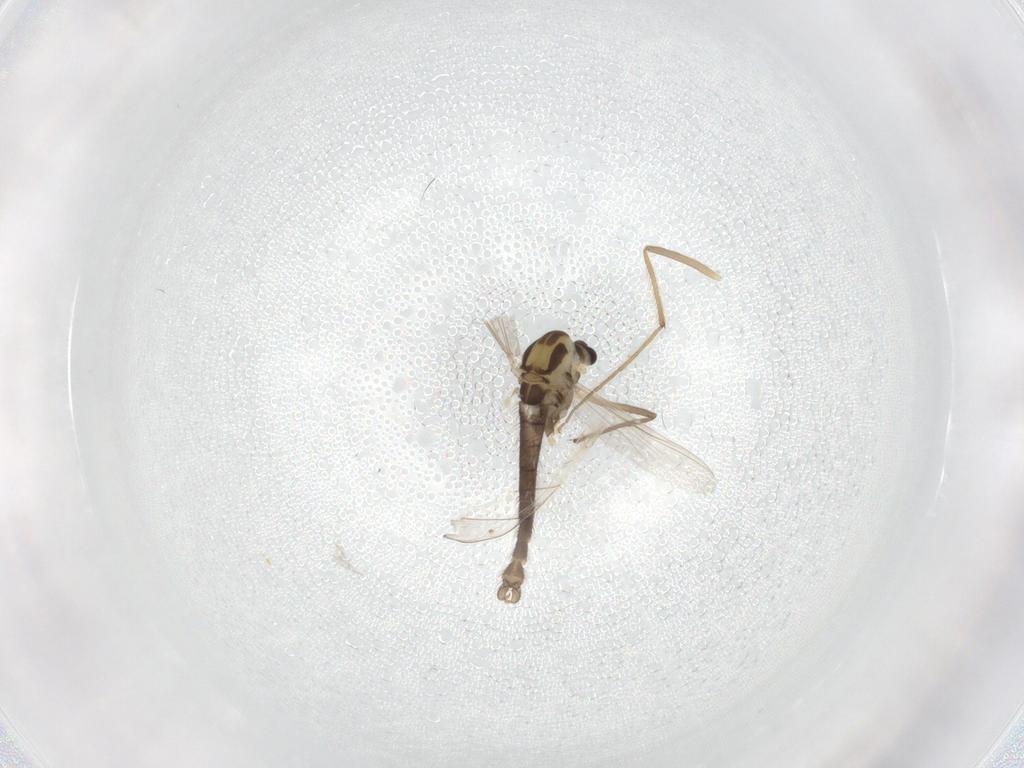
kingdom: Animalia
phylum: Arthropoda
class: Insecta
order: Diptera
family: Chironomidae
